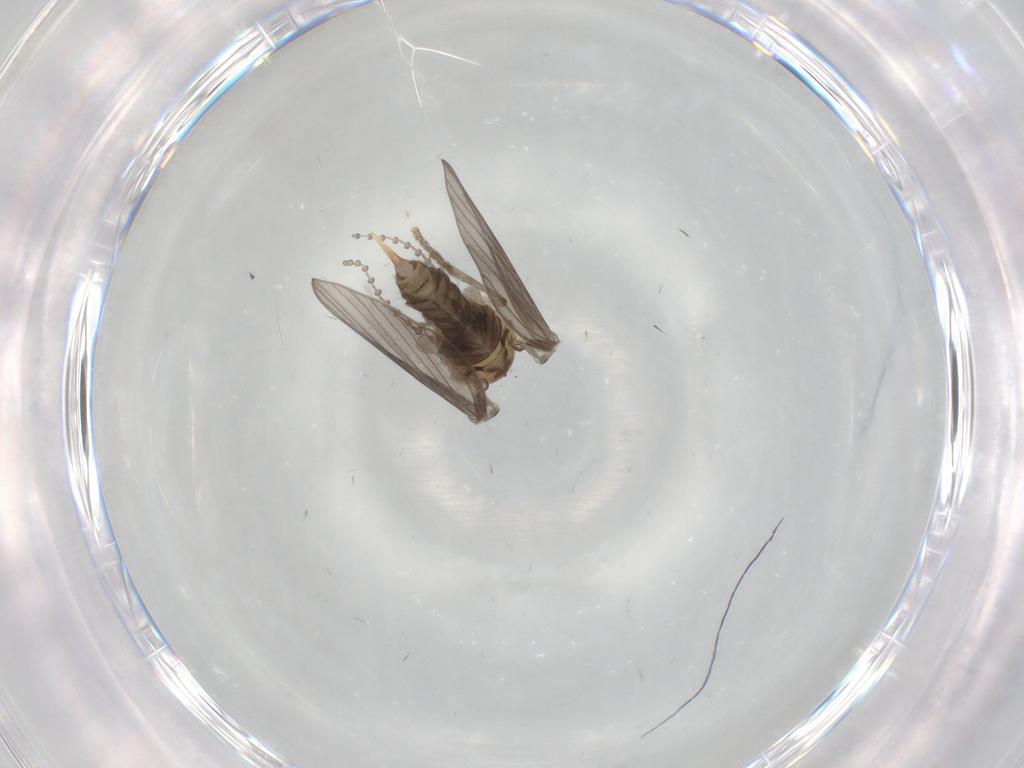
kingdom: Animalia
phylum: Arthropoda
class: Insecta
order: Diptera
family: Psychodidae
